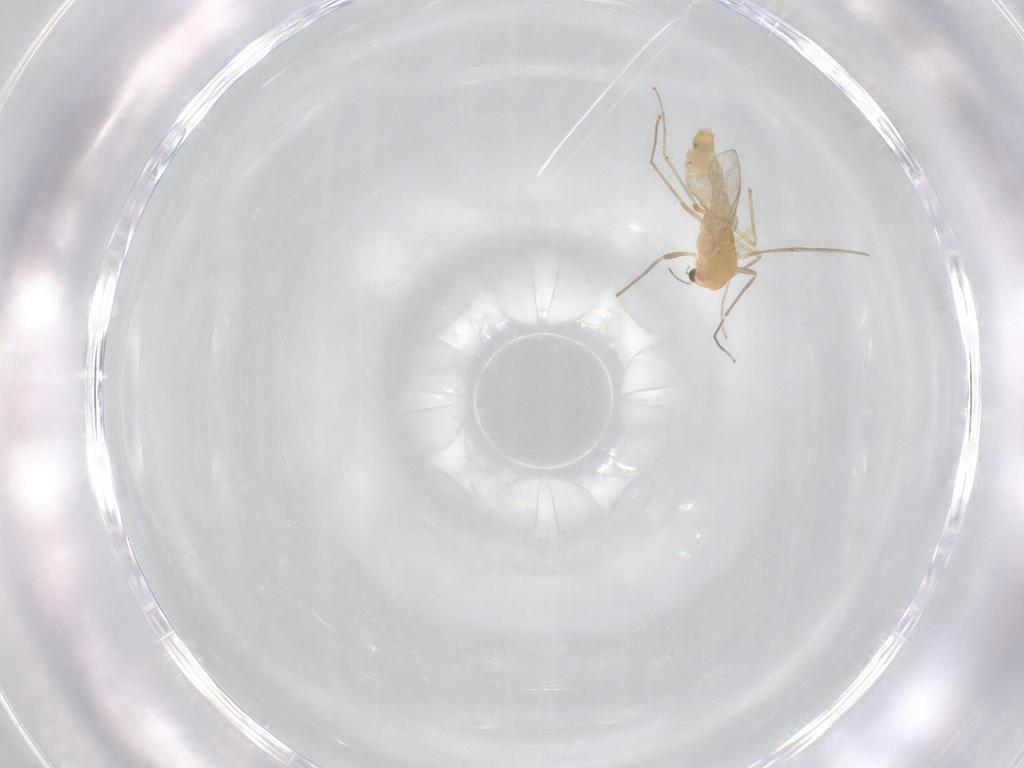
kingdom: Animalia
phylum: Arthropoda
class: Insecta
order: Diptera
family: Chironomidae
